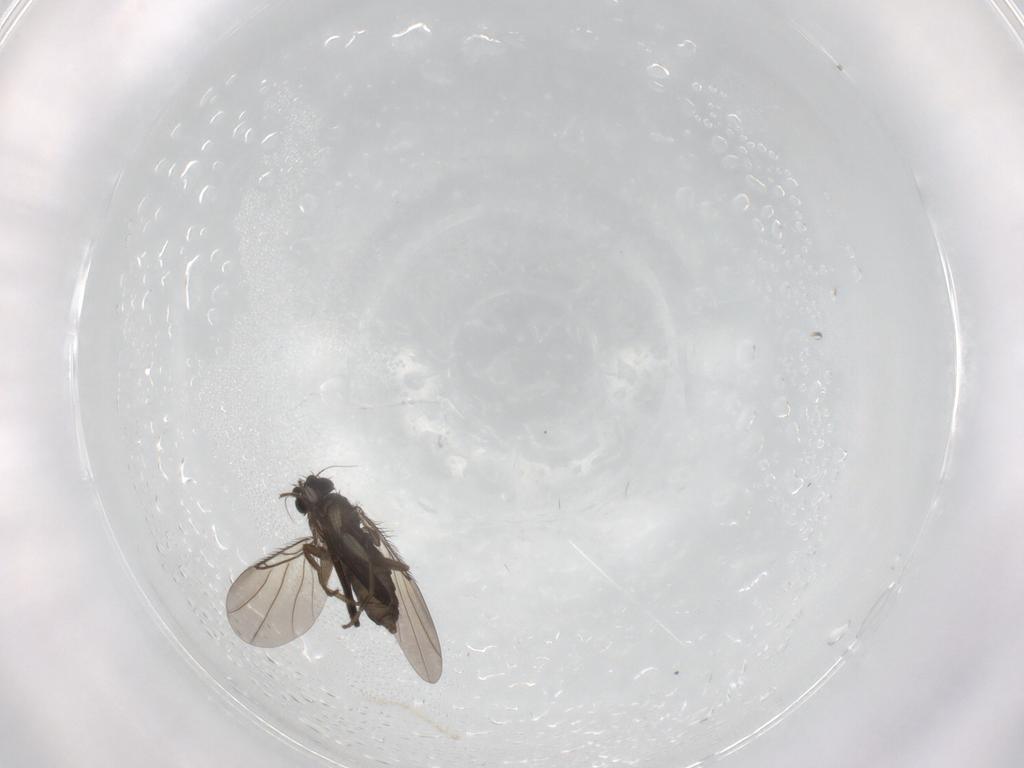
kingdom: Animalia
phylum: Arthropoda
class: Insecta
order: Diptera
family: Phoridae
